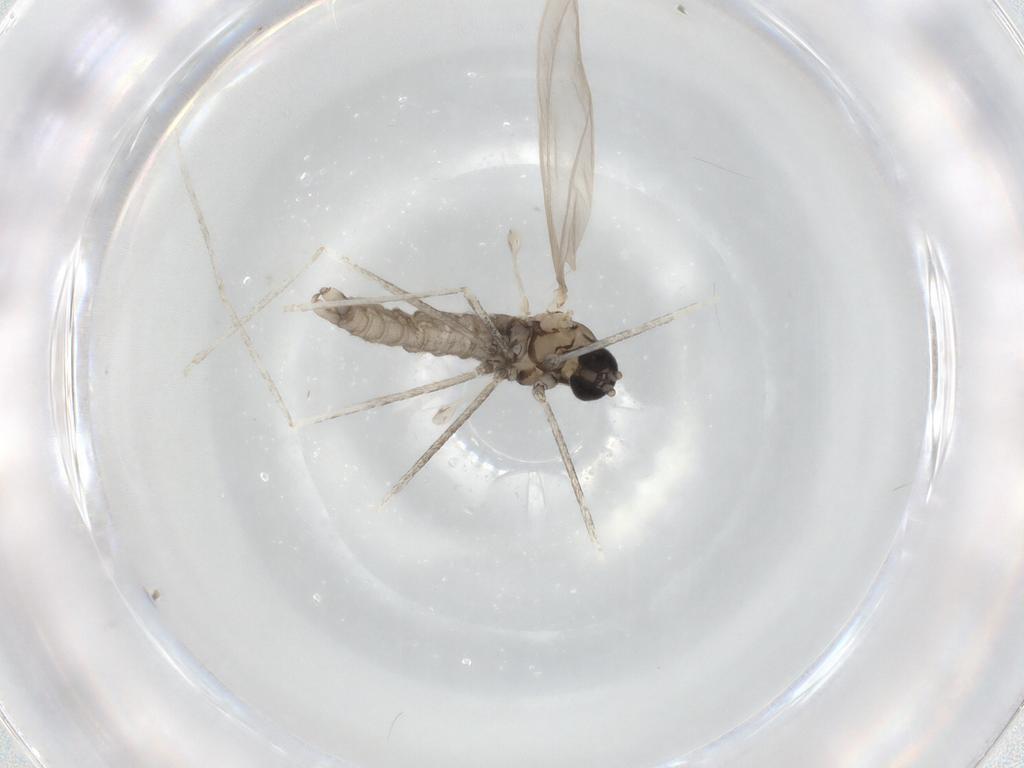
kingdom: Animalia
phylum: Arthropoda
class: Insecta
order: Diptera
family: Cecidomyiidae
